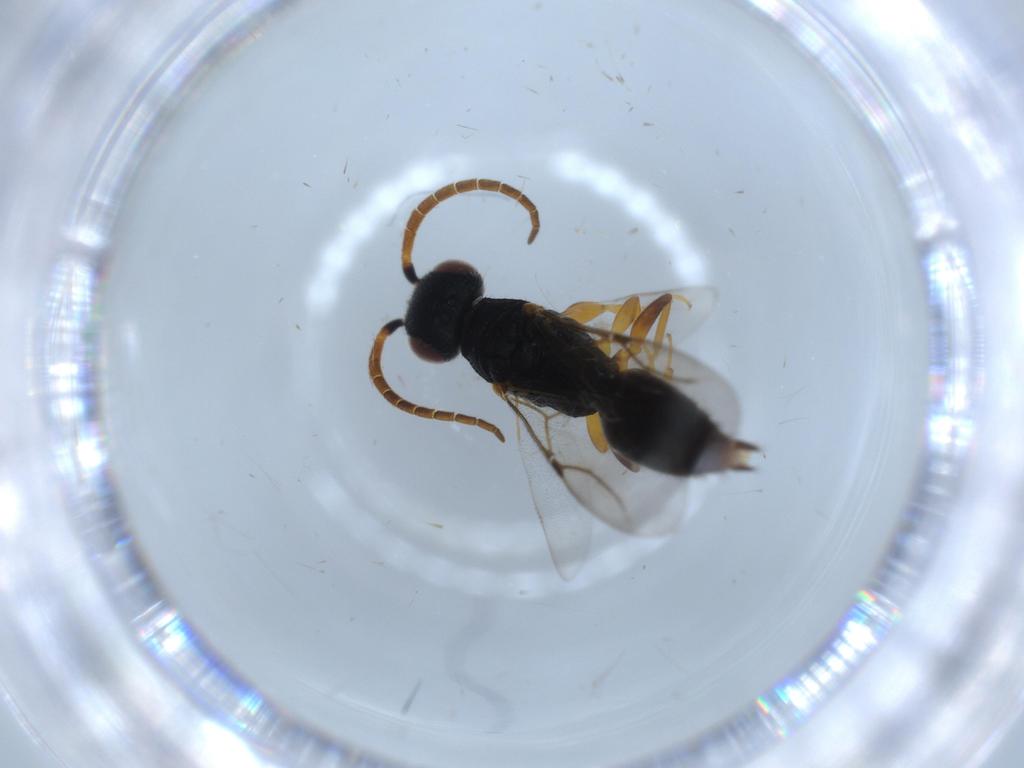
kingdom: Animalia
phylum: Arthropoda
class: Insecta
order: Hymenoptera
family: Bethylidae
